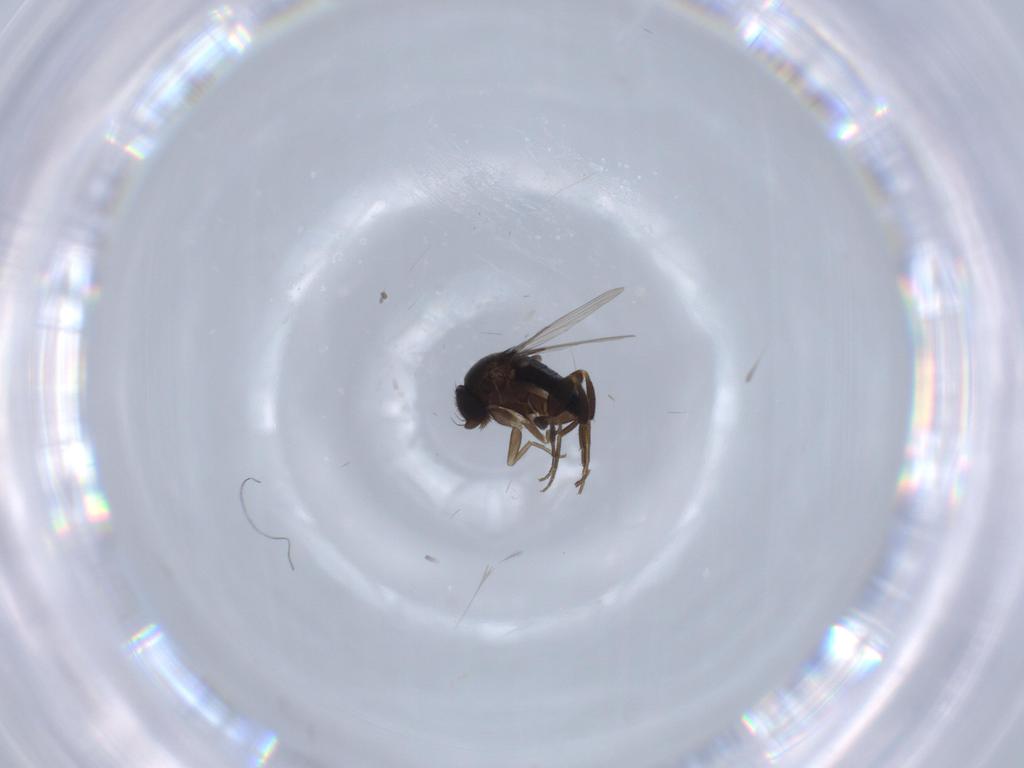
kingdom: Animalia
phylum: Arthropoda
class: Insecta
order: Diptera
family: Phoridae
